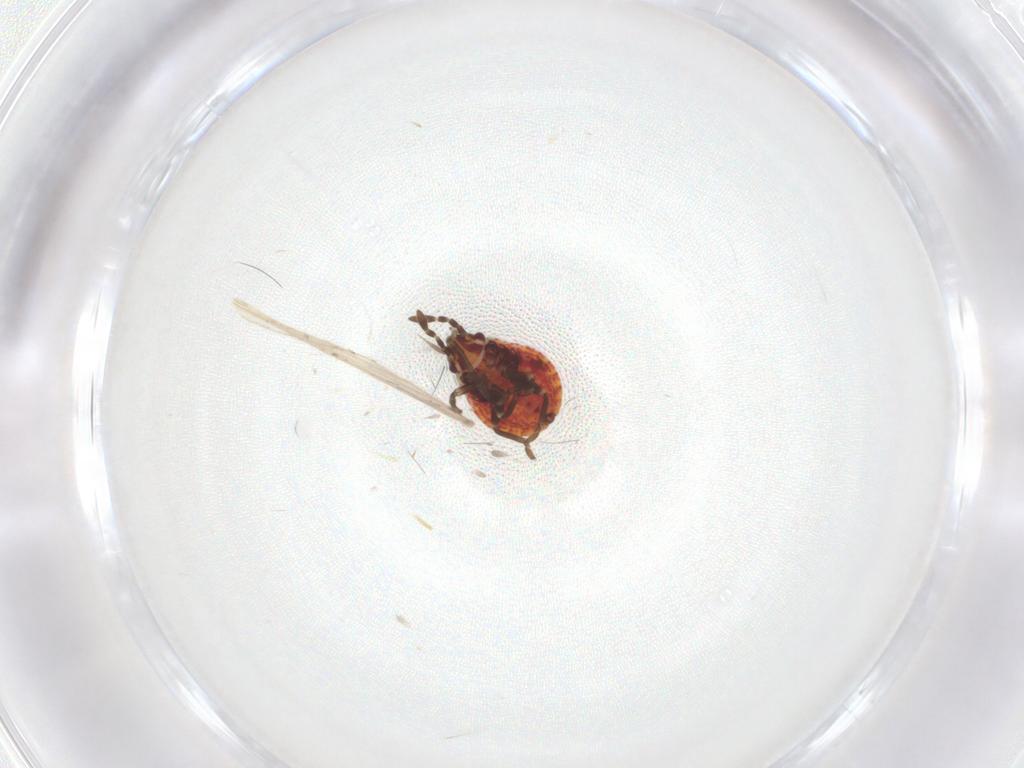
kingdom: Animalia
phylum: Arthropoda
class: Insecta
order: Hemiptera
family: Lygaeidae
